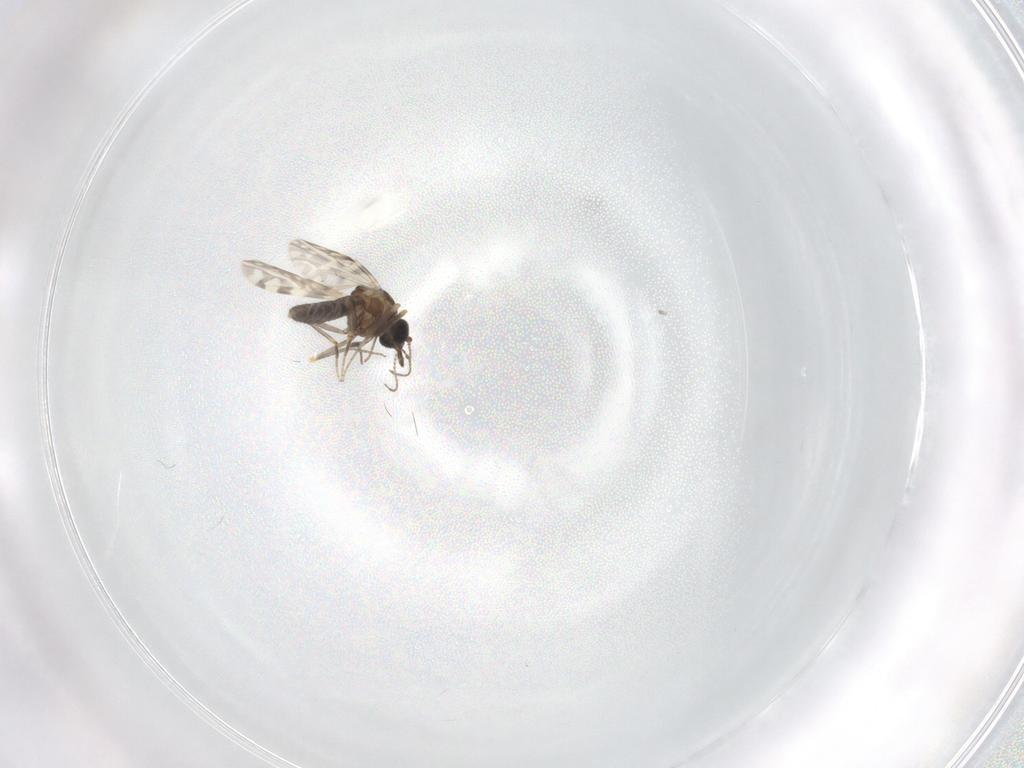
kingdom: Animalia
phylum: Arthropoda
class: Insecta
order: Diptera
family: Ceratopogonidae
